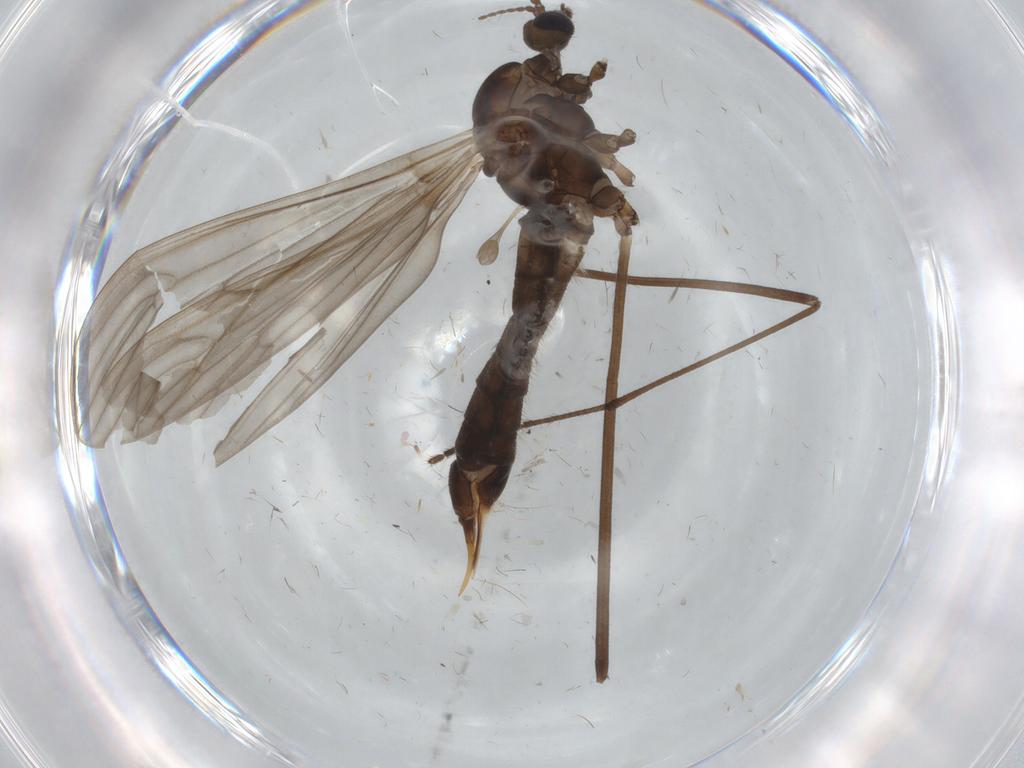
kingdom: Animalia
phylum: Arthropoda
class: Insecta
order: Diptera
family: Limoniidae
